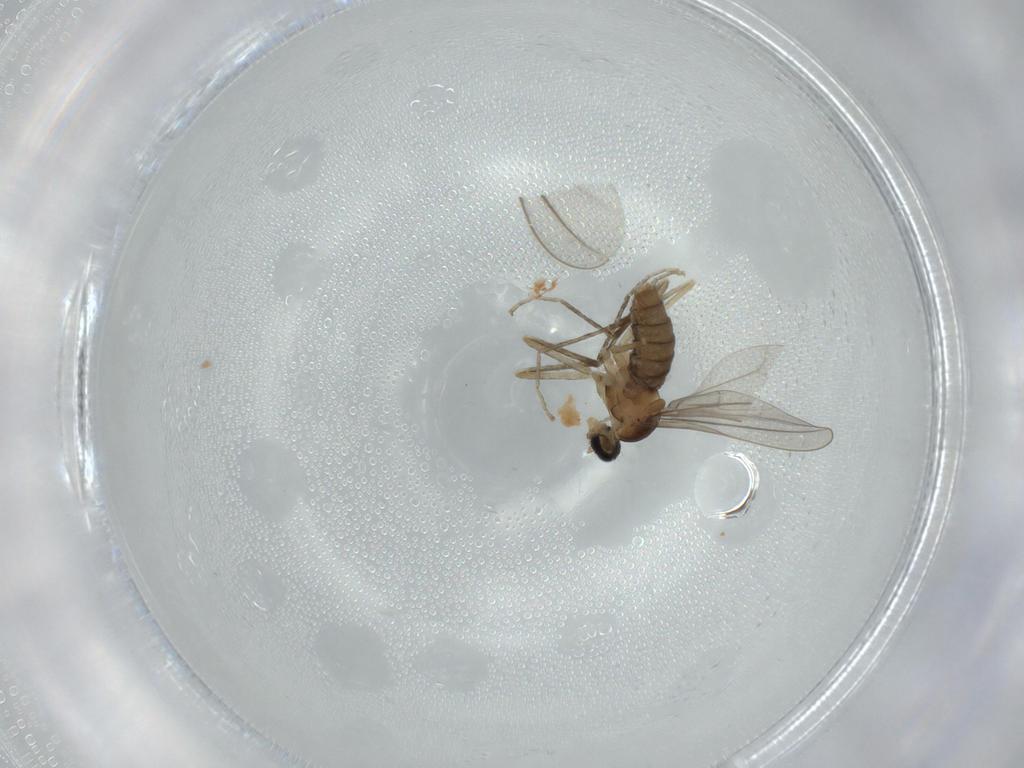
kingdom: Animalia
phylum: Arthropoda
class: Insecta
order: Diptera
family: Cecidomyiidae
